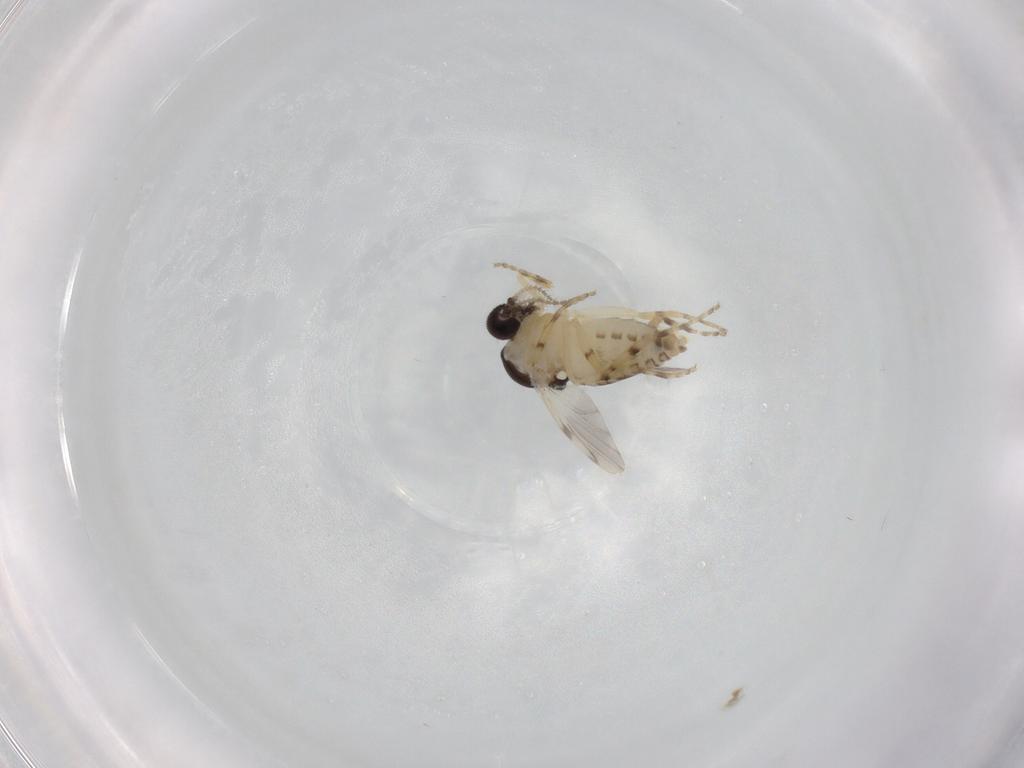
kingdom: Animalia
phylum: Arthropoda
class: Insecta
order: Diptera
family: Ceratopogonidae
